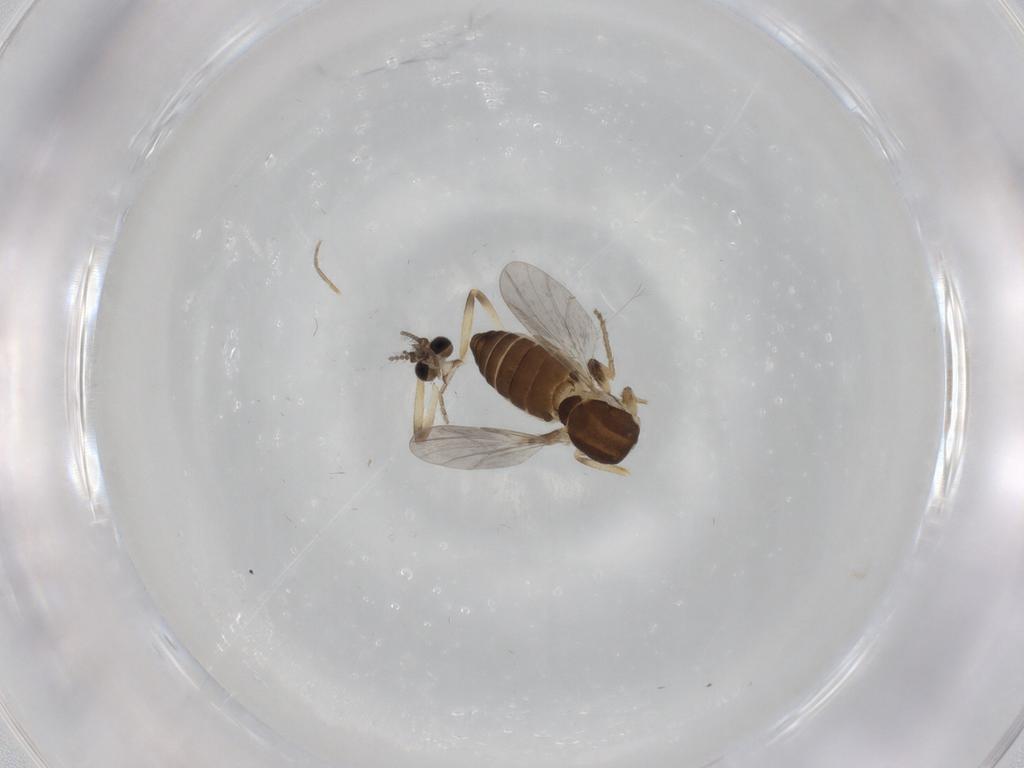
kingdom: Animalia
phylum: Arthropoda
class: Insecta
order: Diptera
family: Ceratopogonidae
